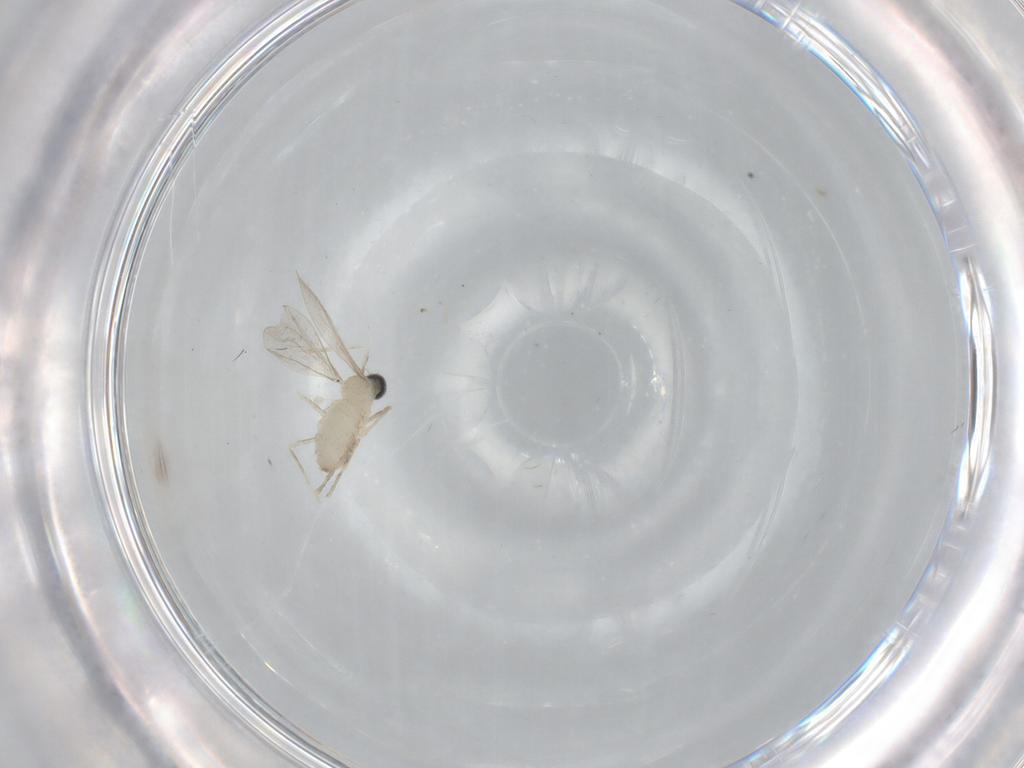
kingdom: Animalia
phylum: Arthropoda
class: Insecta
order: Diptera
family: Cecidomyiidae
